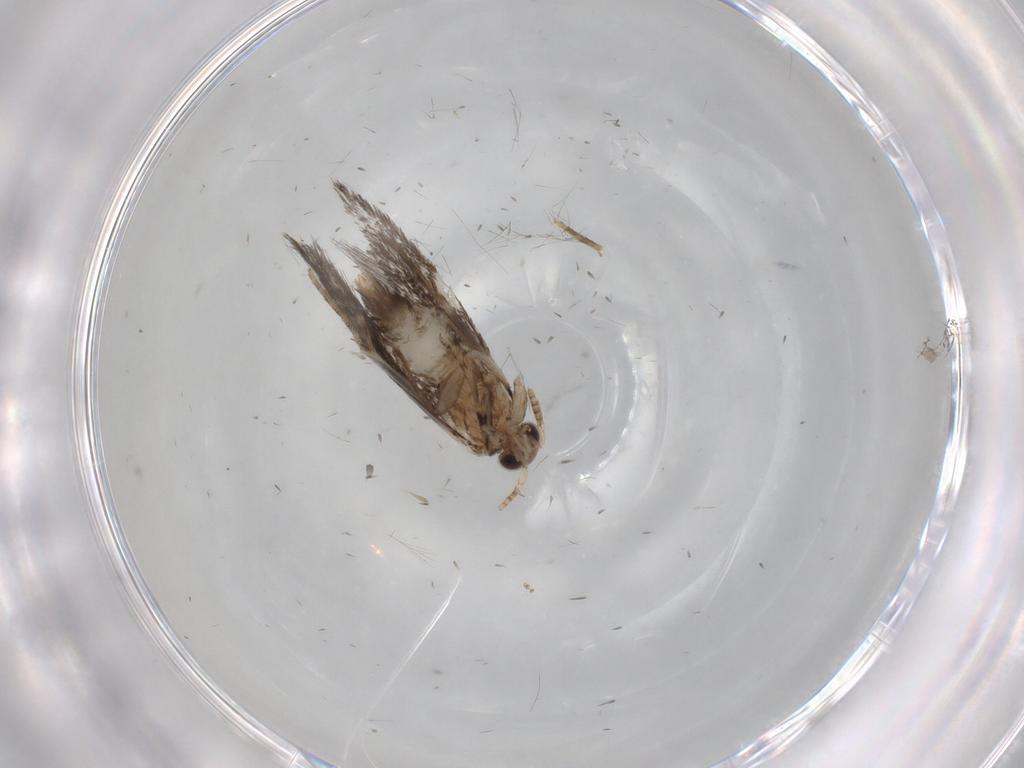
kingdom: Animalia
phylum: Arthropoda
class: Insecta
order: Lepidoptera
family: Tineidae
